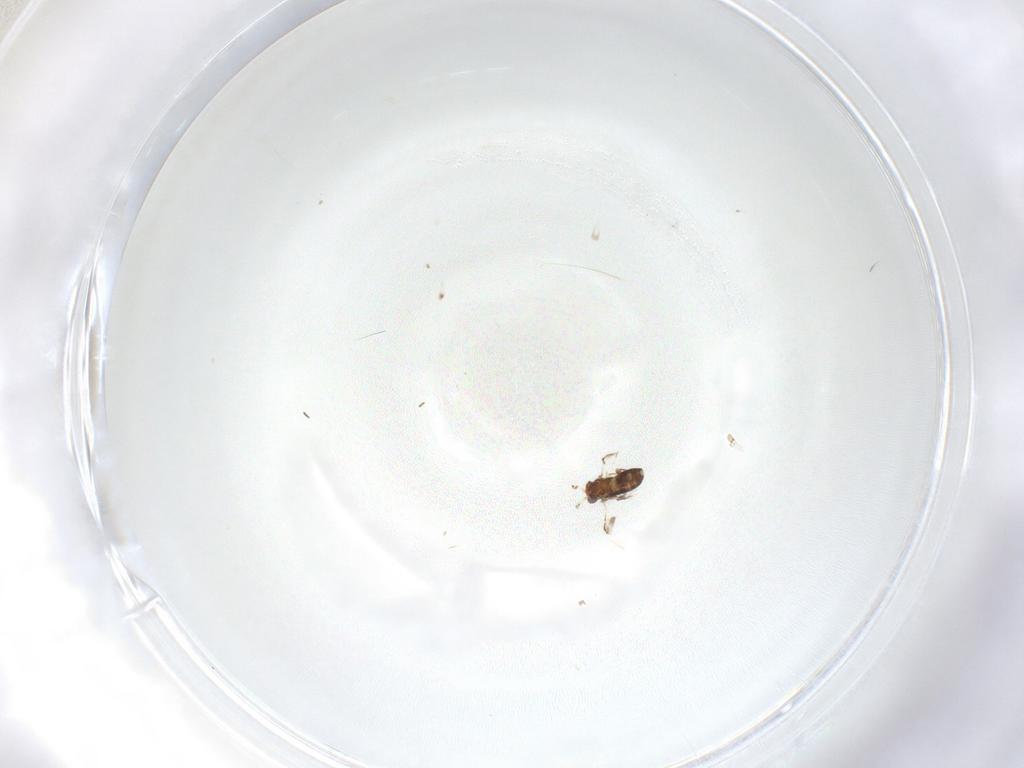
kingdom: Animalia
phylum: Arthropoda
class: Insecta
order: Hymenoptera
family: Trichogrammatidae
